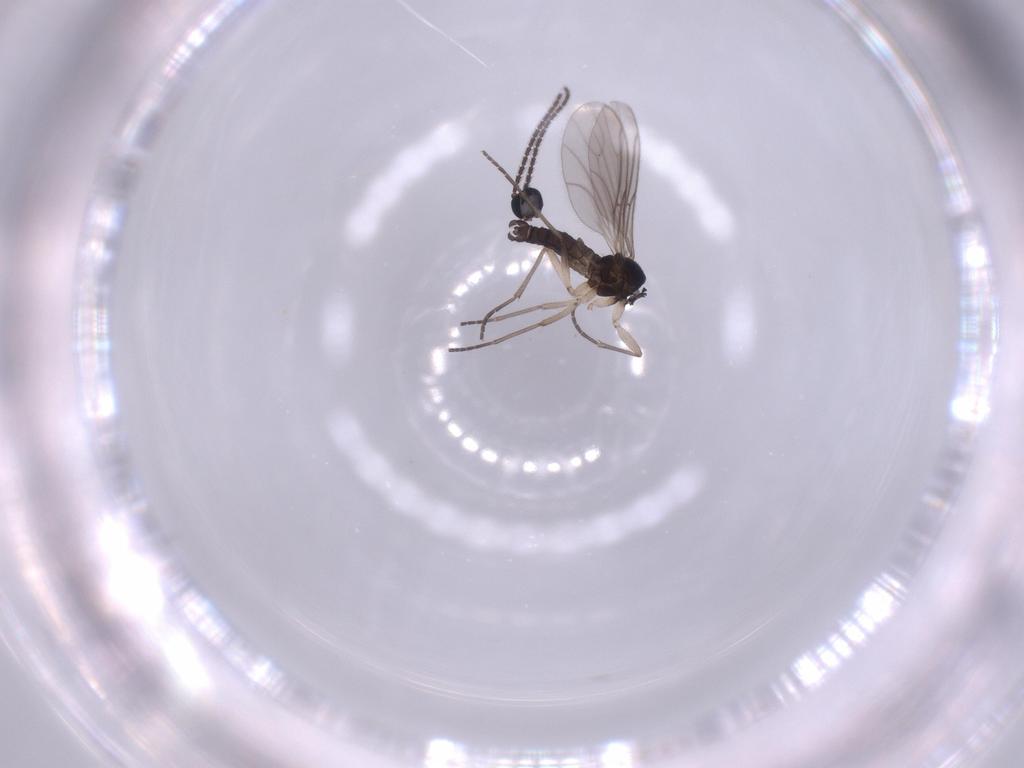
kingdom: Animalia
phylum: Arthropoda
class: Insecta
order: Diptera
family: Sciaridae
